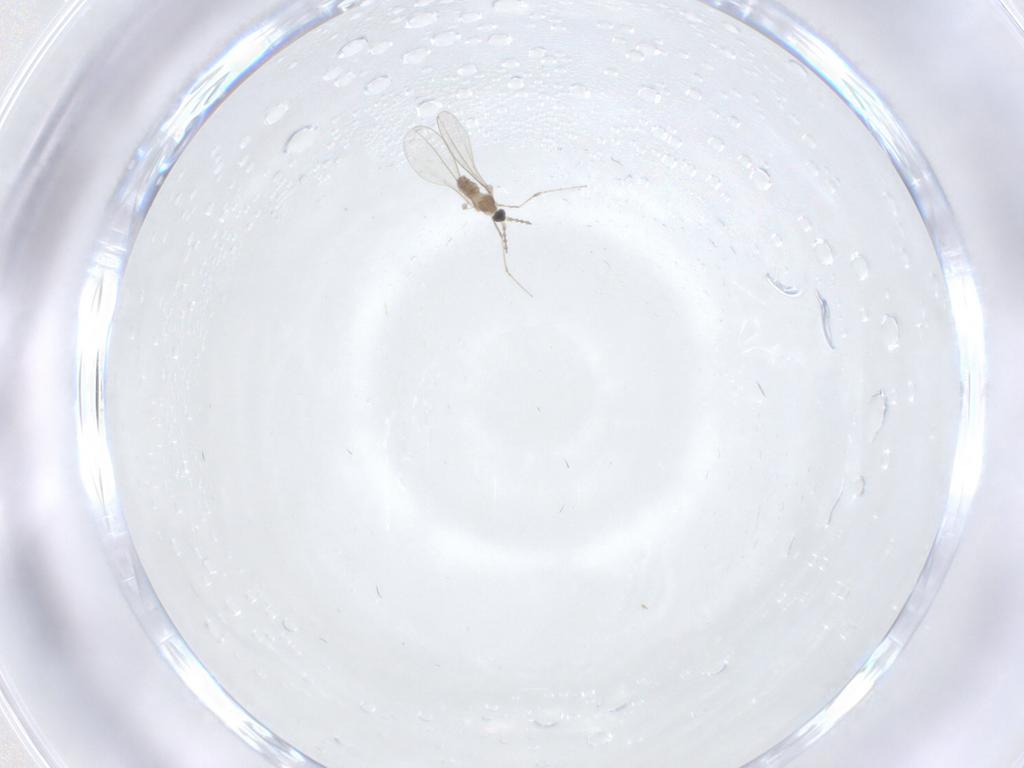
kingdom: Animalia
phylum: Arthropoda
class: Insecta
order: Diptera
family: Cecidomyiidae
